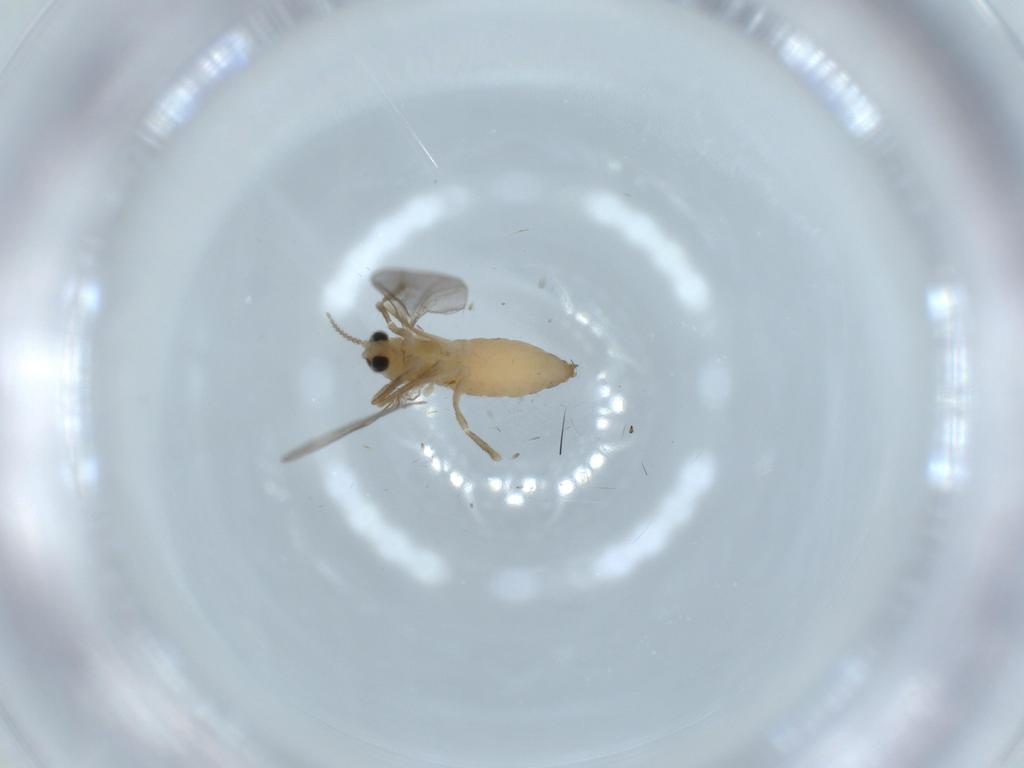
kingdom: Animalia
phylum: Arthropoda
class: Insecta
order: Diptera
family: Cecidomyiidae
